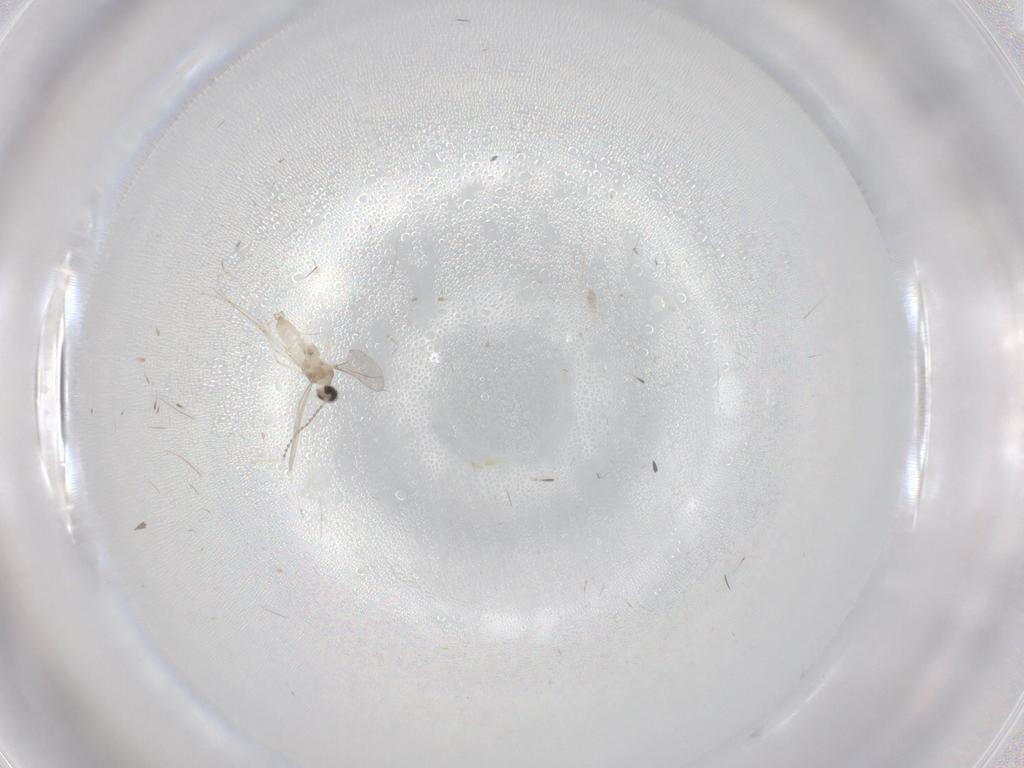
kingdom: Animalia
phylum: Arthropoda
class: Insecta
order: Diptera
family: Cecidomyiidae
